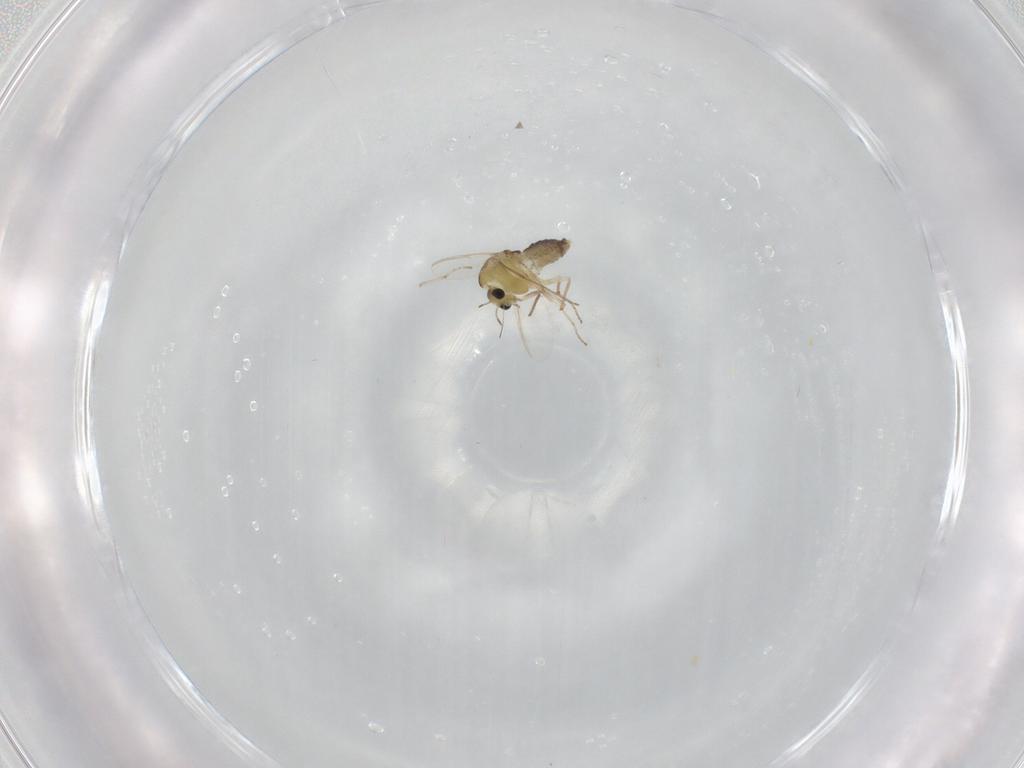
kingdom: Animalia
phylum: Arthropoda
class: Insecta
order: Diptera
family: Chironomidae
